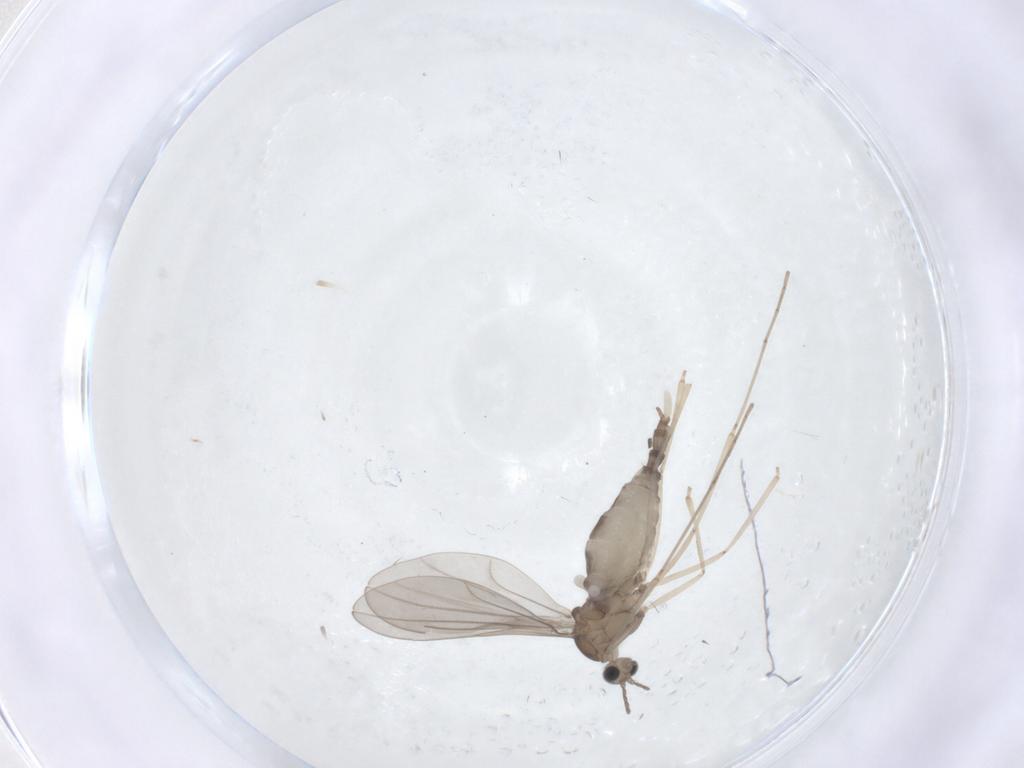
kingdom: Animalia
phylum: Arthropoda
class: Insecta
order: Diptera
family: Cecidomyiidae
